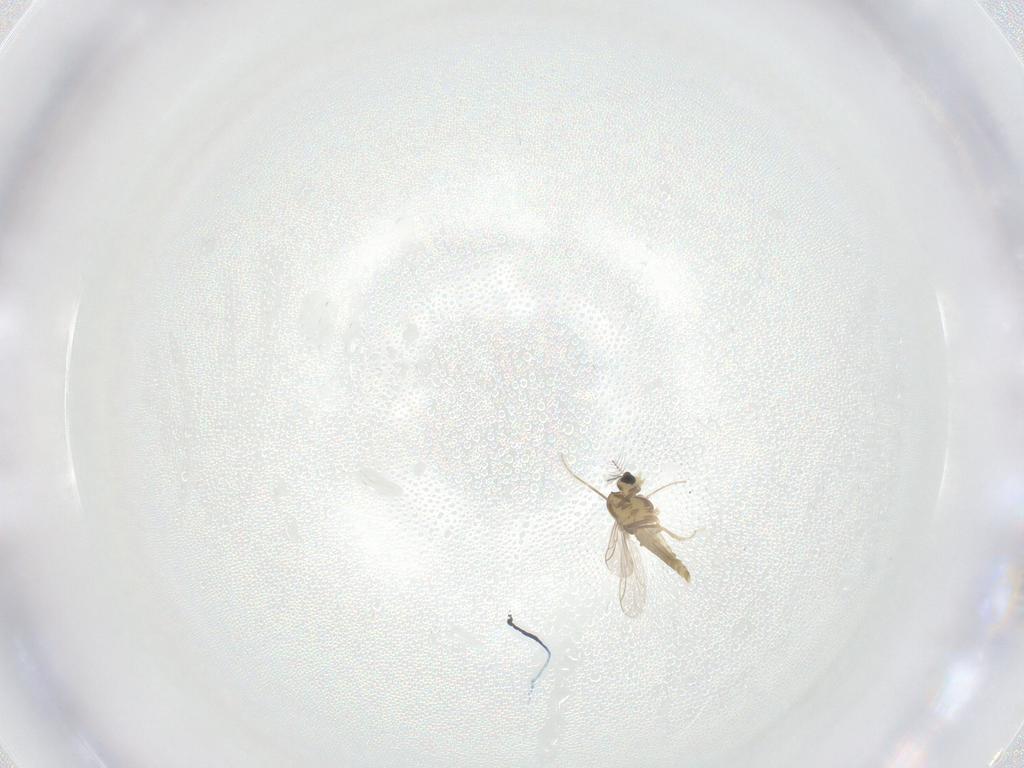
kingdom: Animalia
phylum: Arthropoda
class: Insecta
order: Diptera
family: Chironomidae
